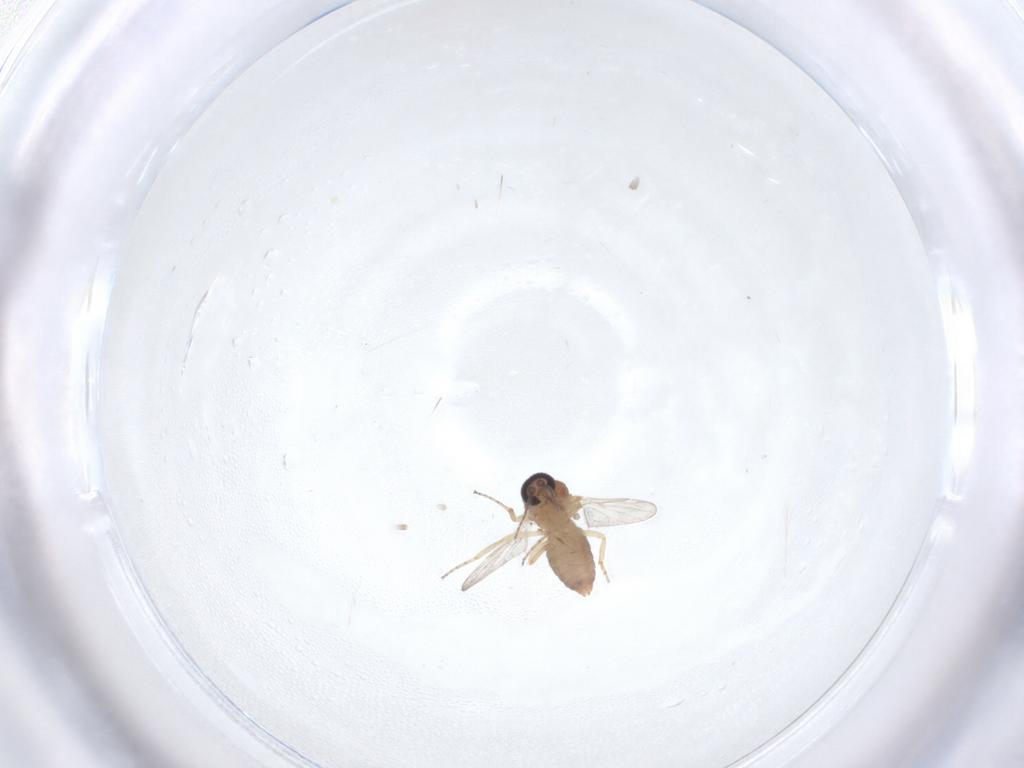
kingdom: Animalia
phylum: Arthropoda
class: Insecta
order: Diptera
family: Ceratopogonidae
